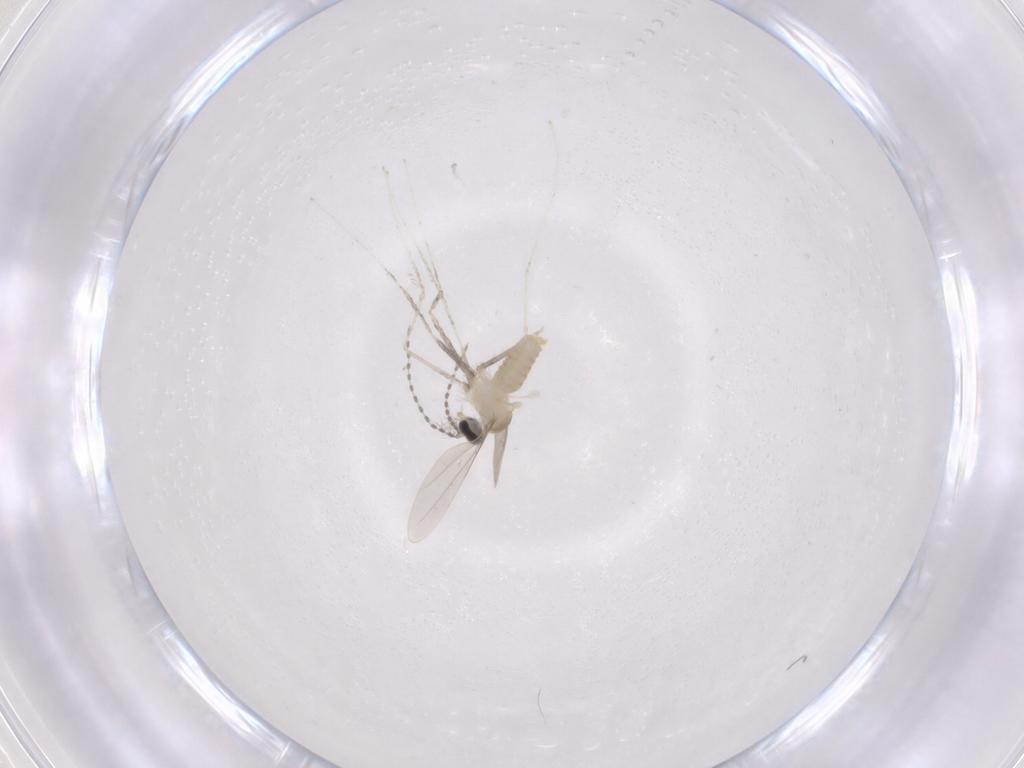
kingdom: Animalia
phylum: Arthropoda
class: Insecta
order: Diptera
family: Cecidomyiidae
